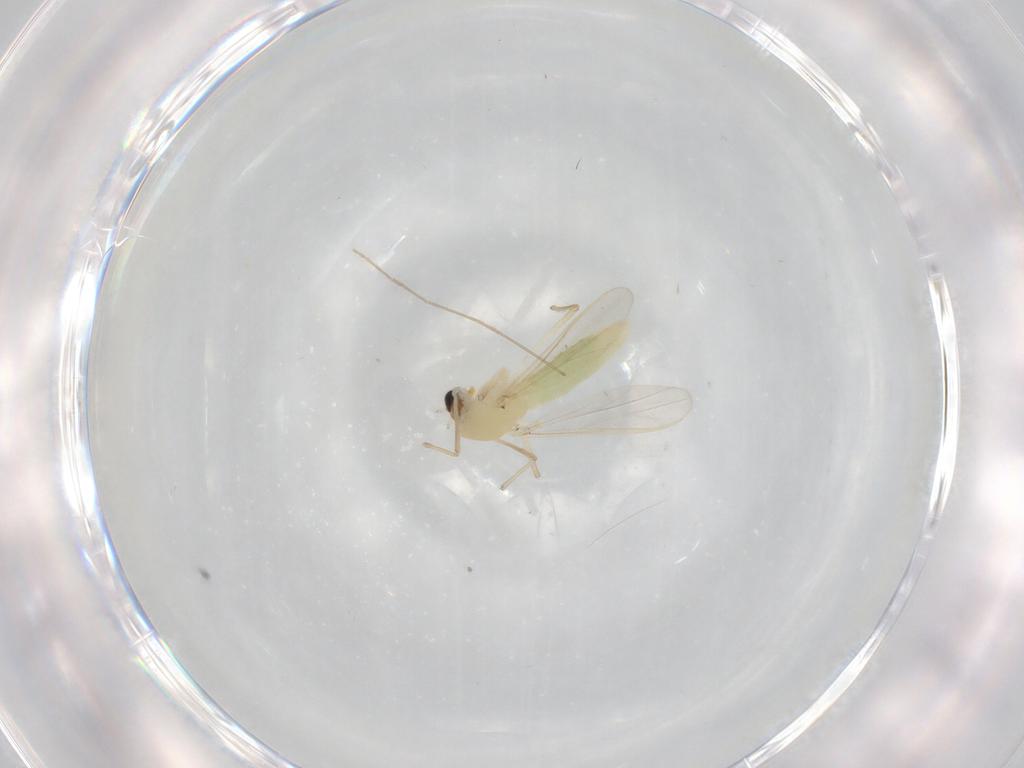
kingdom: Animalia
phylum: Arthropoda
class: Insecta
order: Diptera
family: Chironomidae
